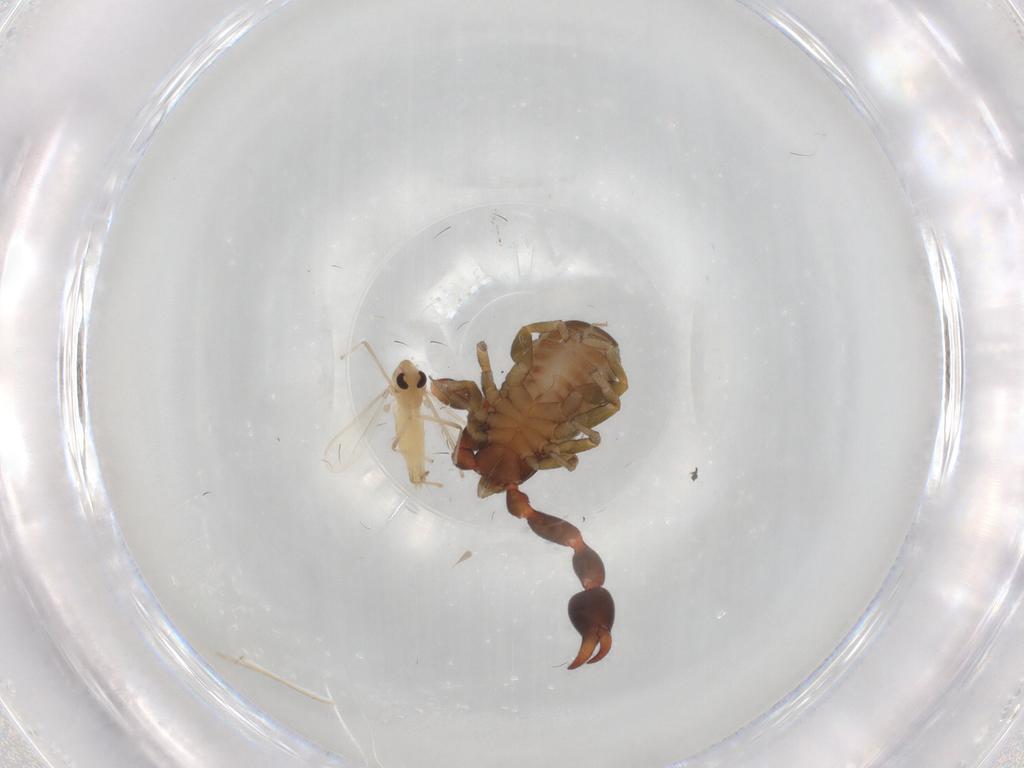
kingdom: Animalia
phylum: Arthropoda
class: Insecta
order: Diptera
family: Chironomidae
